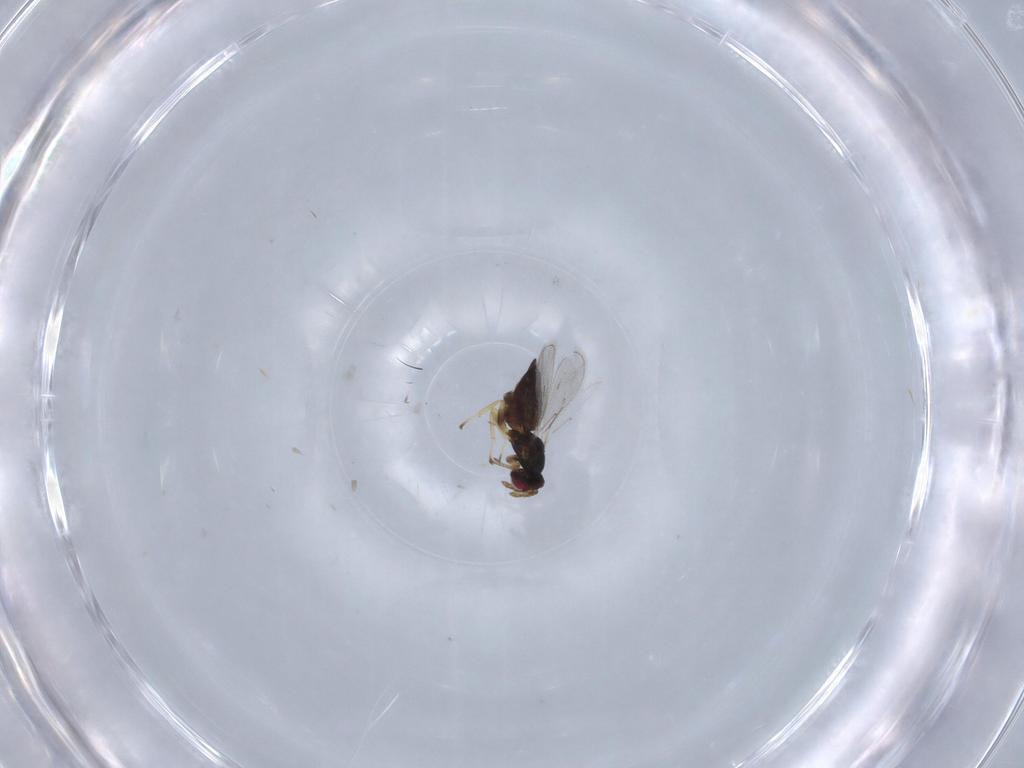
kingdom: Animalia
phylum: Arthropoda
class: Insecta
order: Hymenoptera
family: Eulophidae
